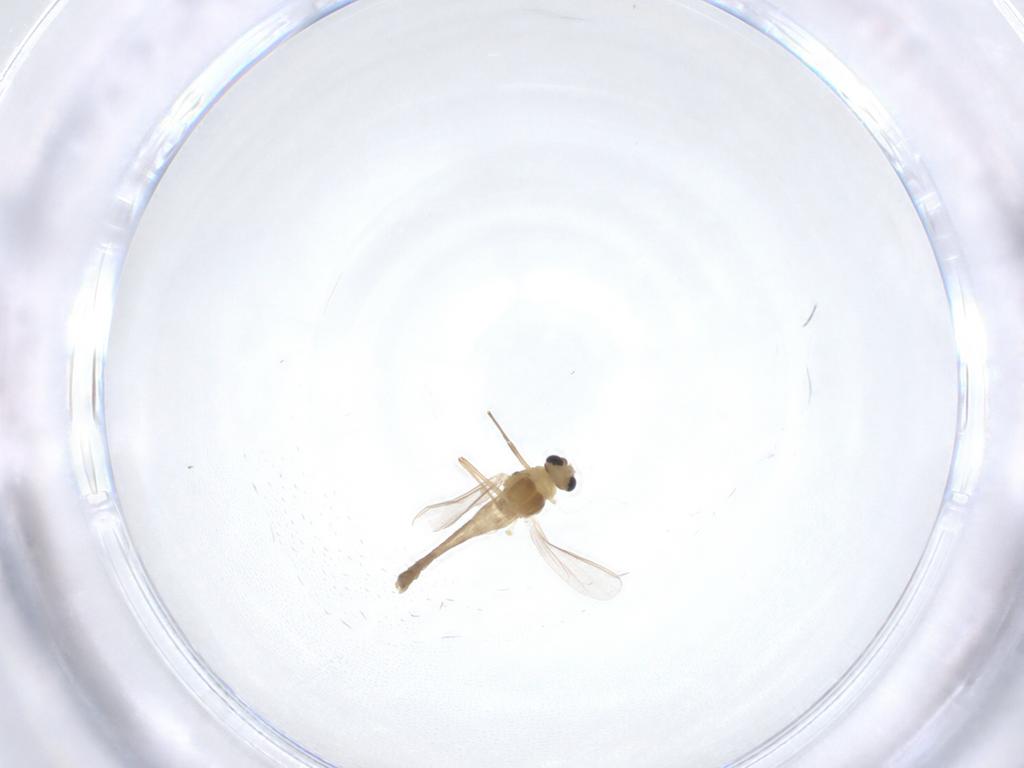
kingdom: Animalia
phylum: Arthropoda
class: Insecta
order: Diptera
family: Chironomidae
